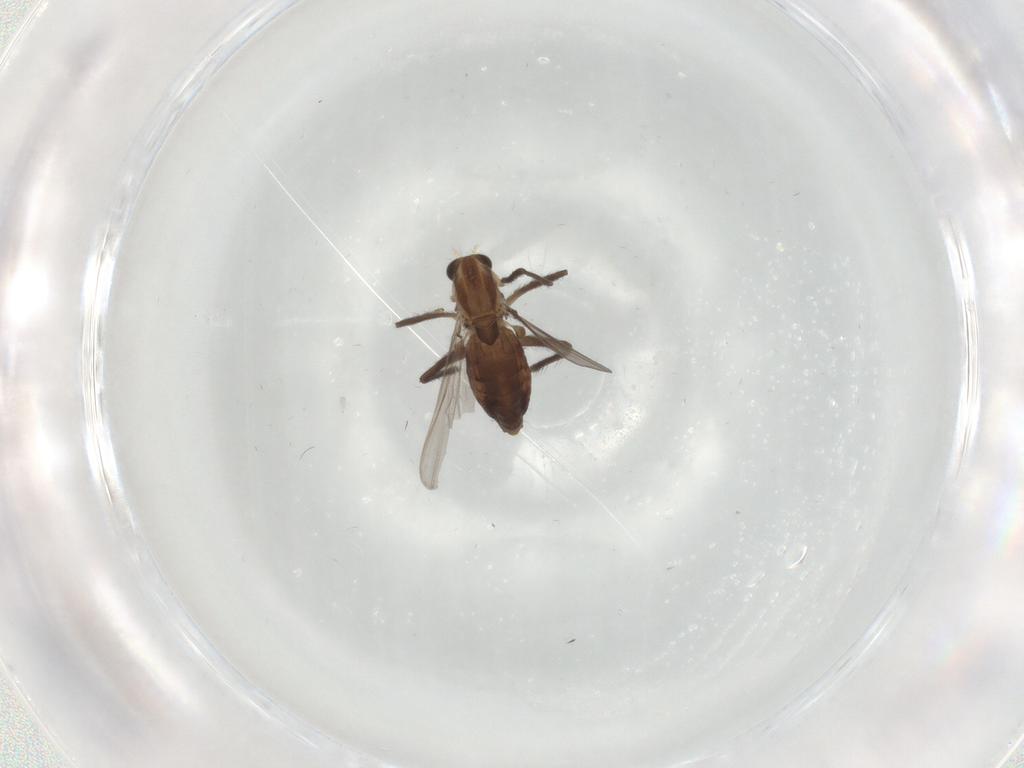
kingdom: Animalia
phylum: Arthropoda
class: Insecta
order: Diptera
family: Chironomidae
